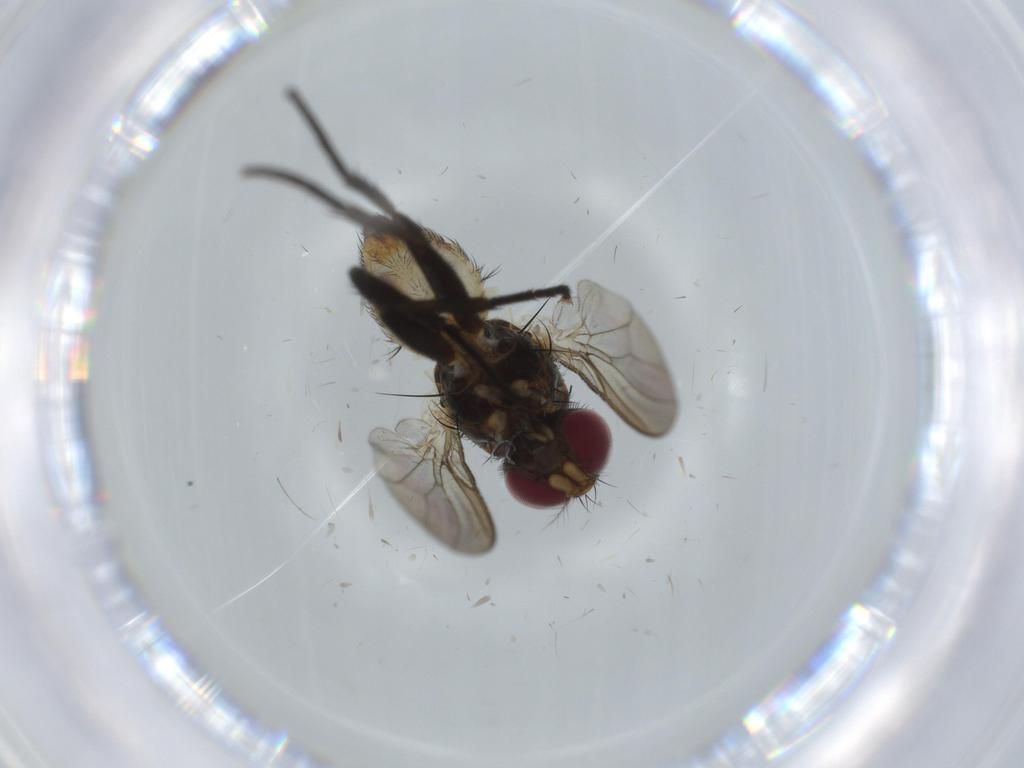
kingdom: Animalia
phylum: Arthropoda
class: Insecta
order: Diptera
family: Anthomyiidae
